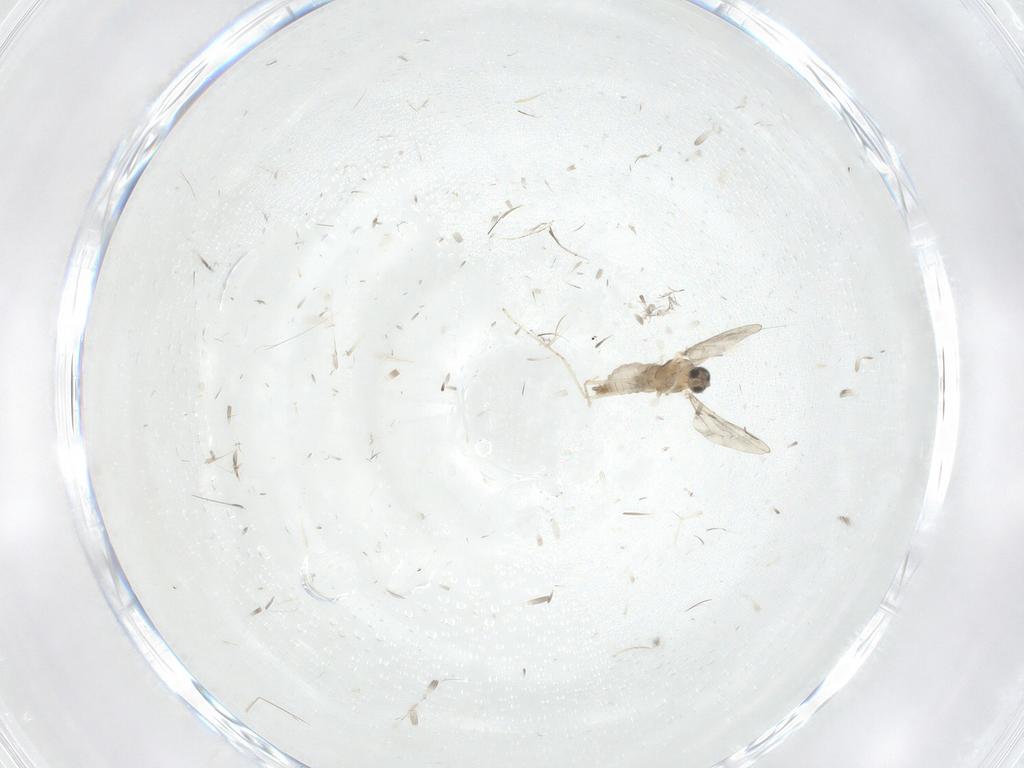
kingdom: Animalia
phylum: Arthropoda
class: Insecta
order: Diptera
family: Phoridae
